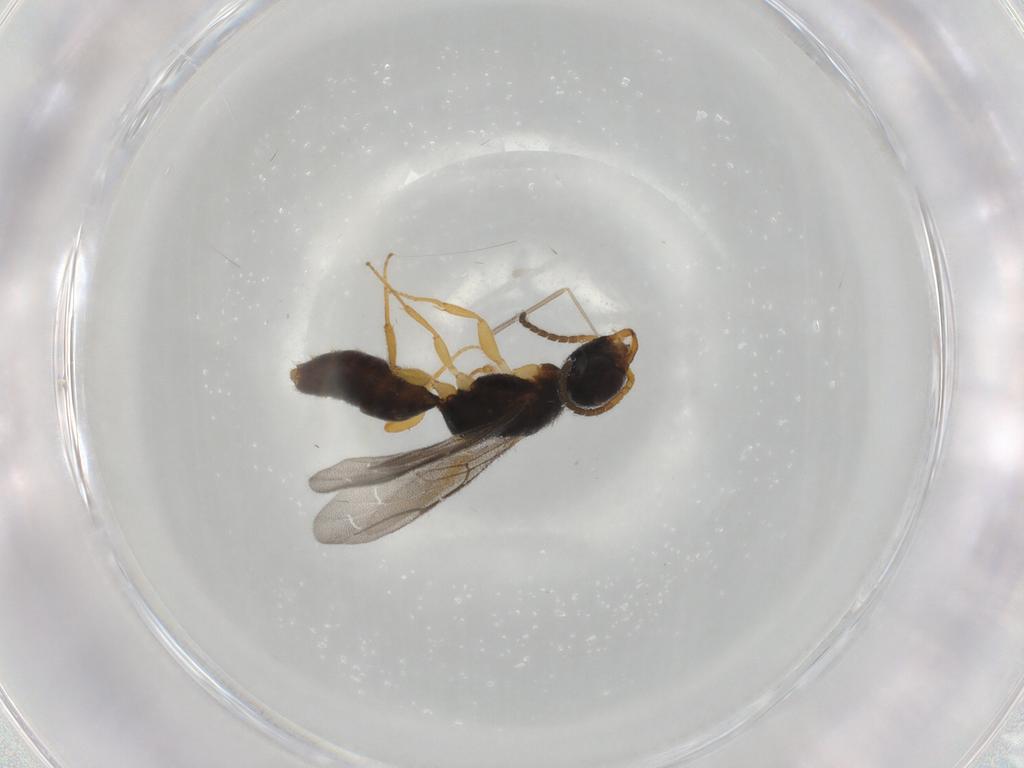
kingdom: Animalia
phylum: Arthropoda
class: Insecta
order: Hymenoptera
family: Bethylidae
